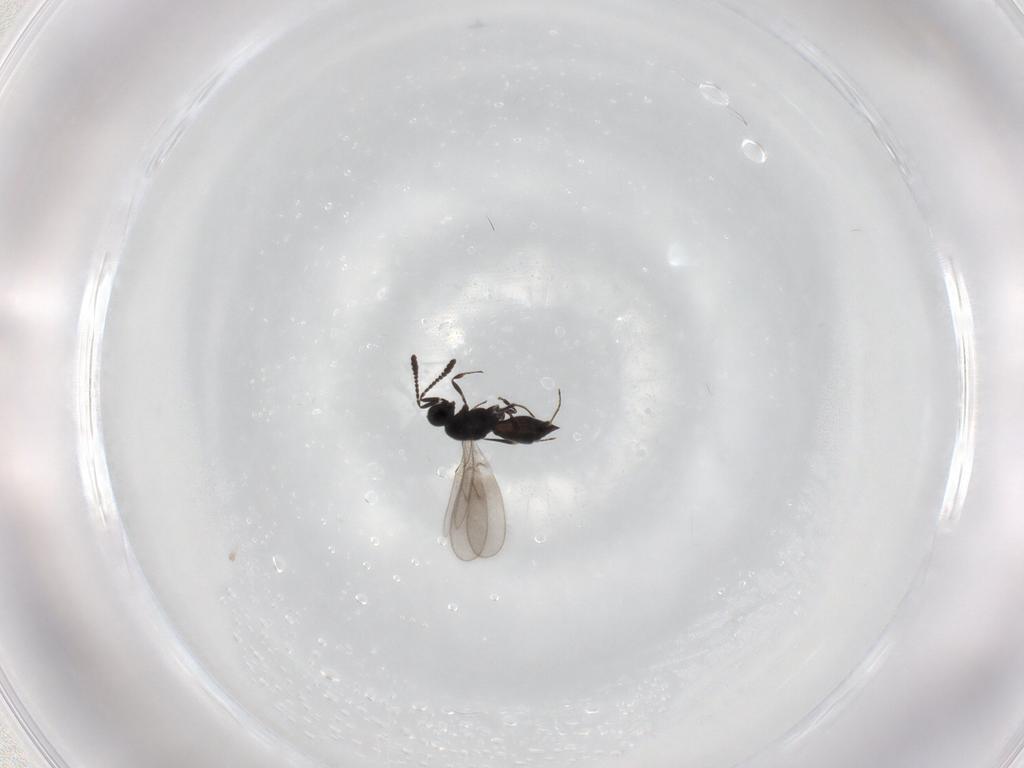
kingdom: Animalia
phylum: Arthropoda
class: Insecta
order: Hymenoptera
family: Scelionidae
